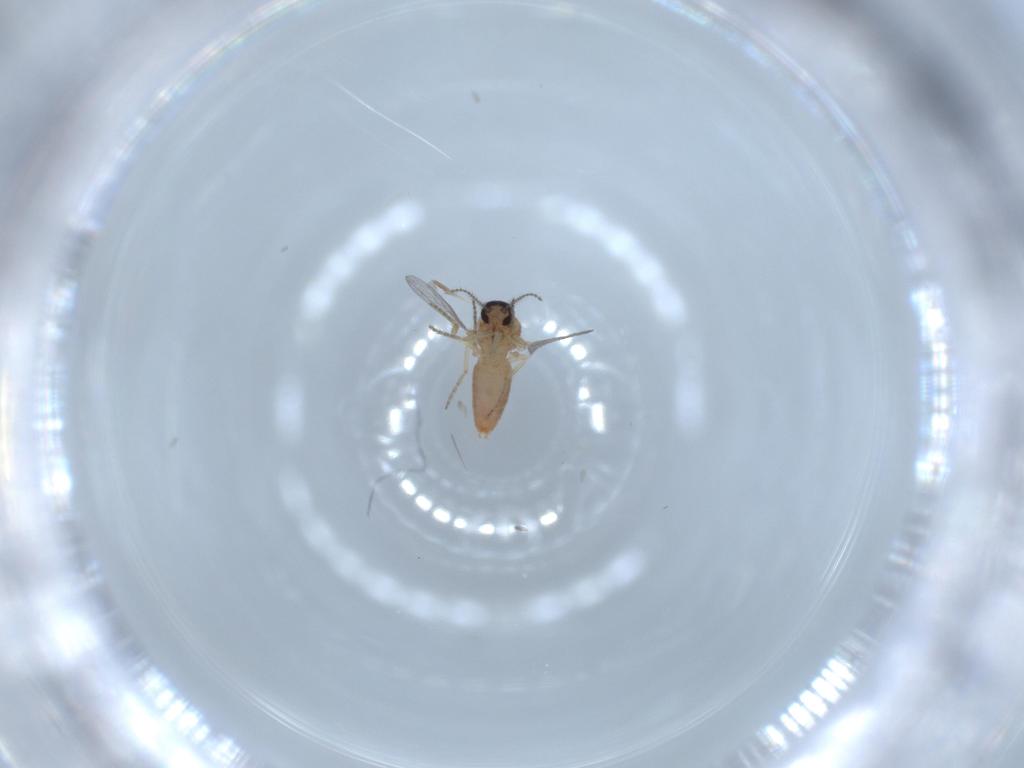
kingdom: Animalia
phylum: Arthropoda
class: Insecta
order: Diptera
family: Ceratopogonidae
